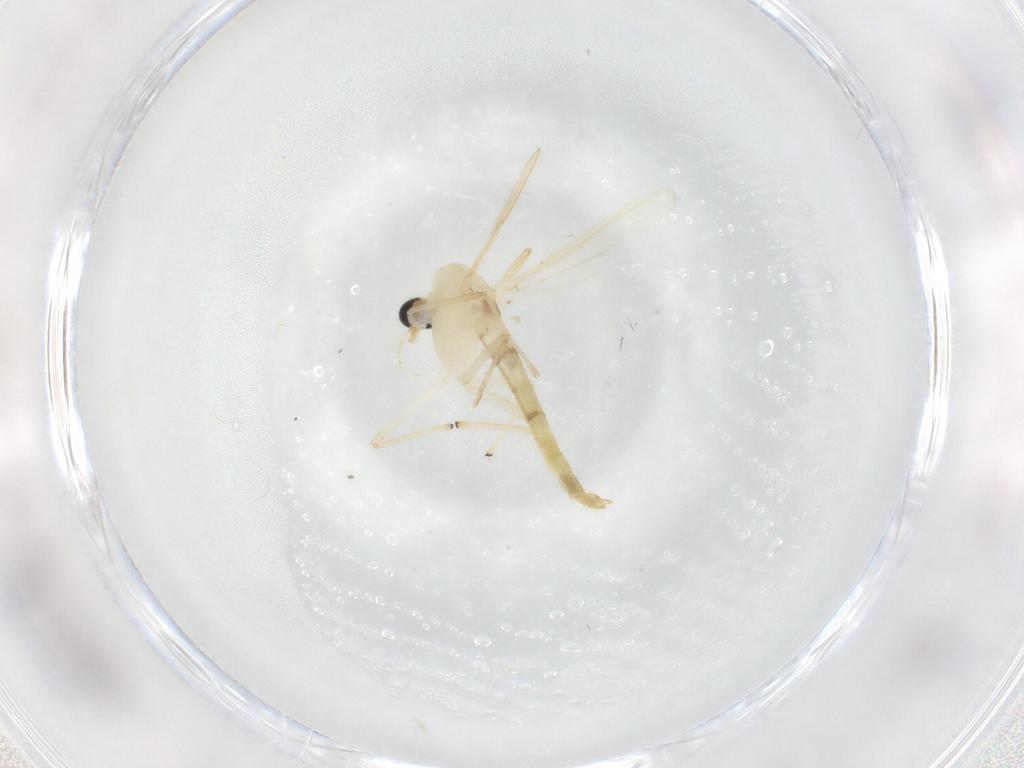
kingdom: Animalia
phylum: Arthropoda
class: Insecta
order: Diptera
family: Chironomidae
